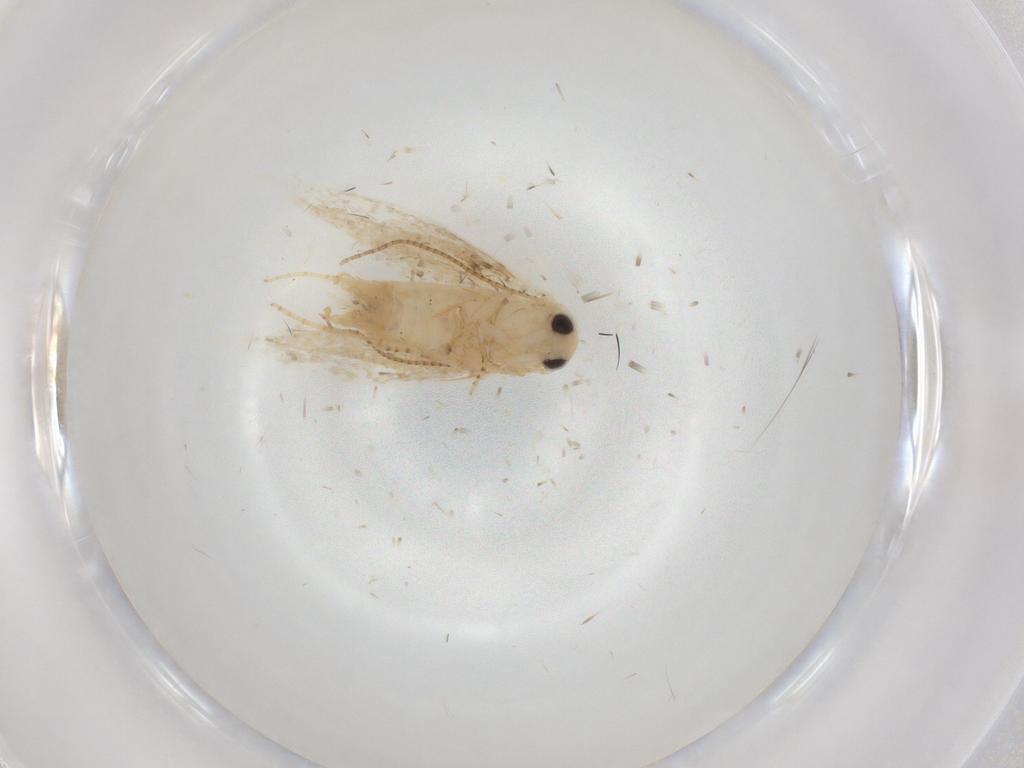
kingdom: Animalia
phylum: Arthropoda
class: Insecta
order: Lepidoptera
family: Bucculatricidae
